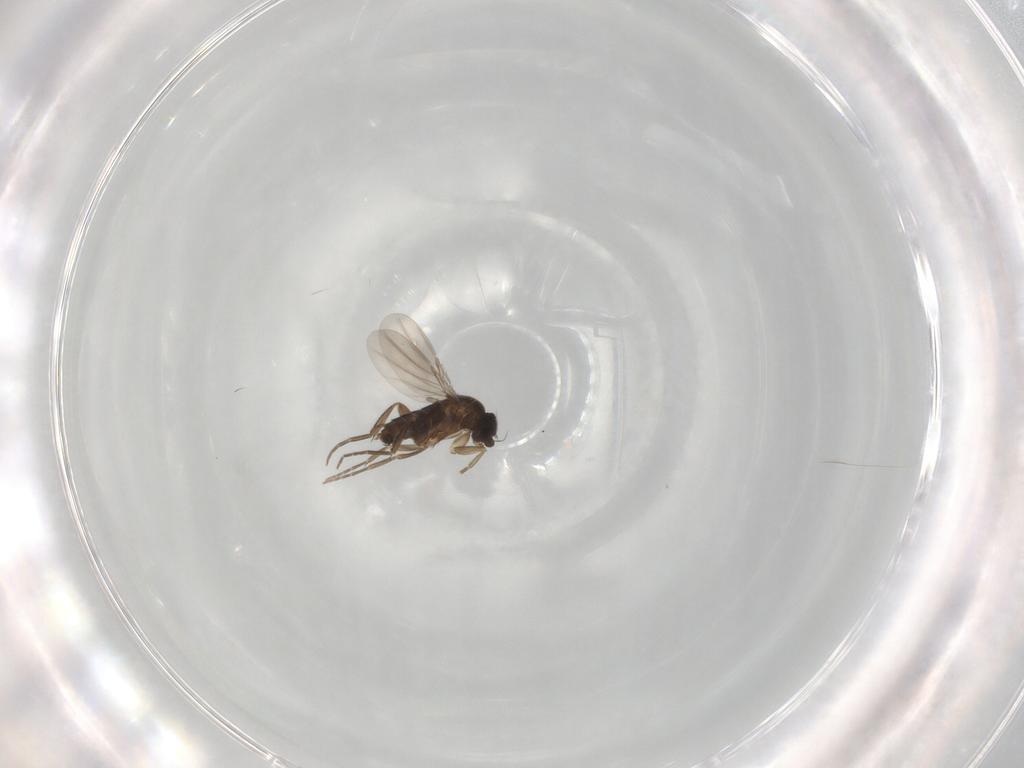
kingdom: Animalia
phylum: Arthropoda
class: Insecta
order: Diptera
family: Phoridae
